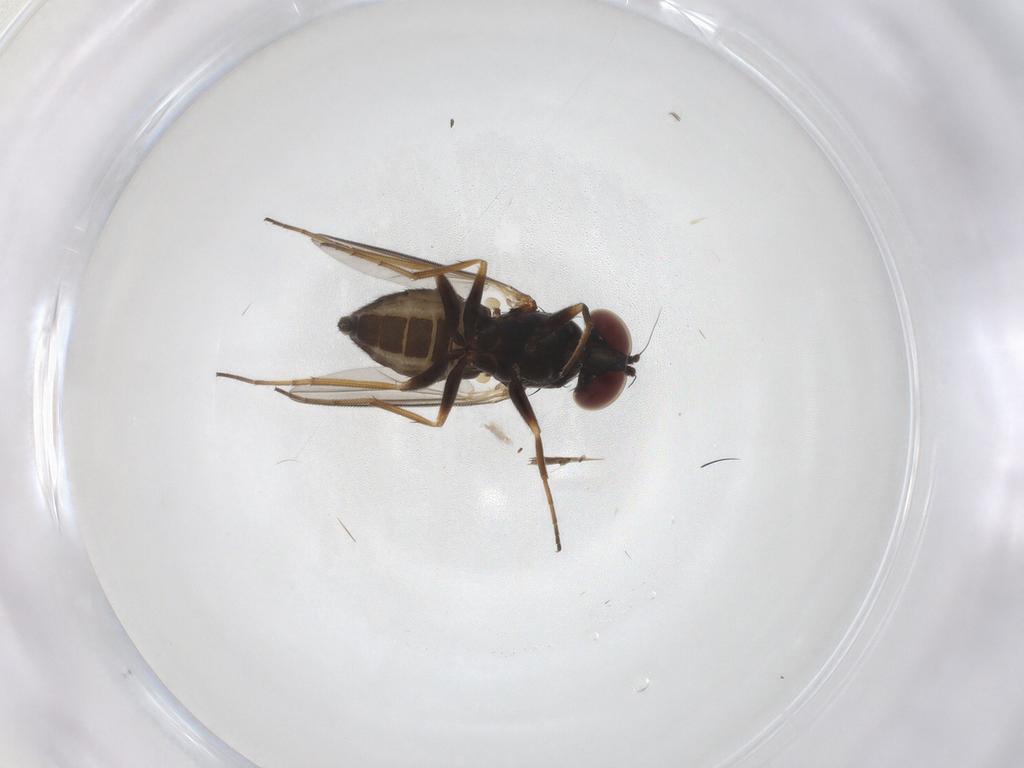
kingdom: Animalia
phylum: Arthropoda
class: Insecta
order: Diptera
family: Dolichopodidae
